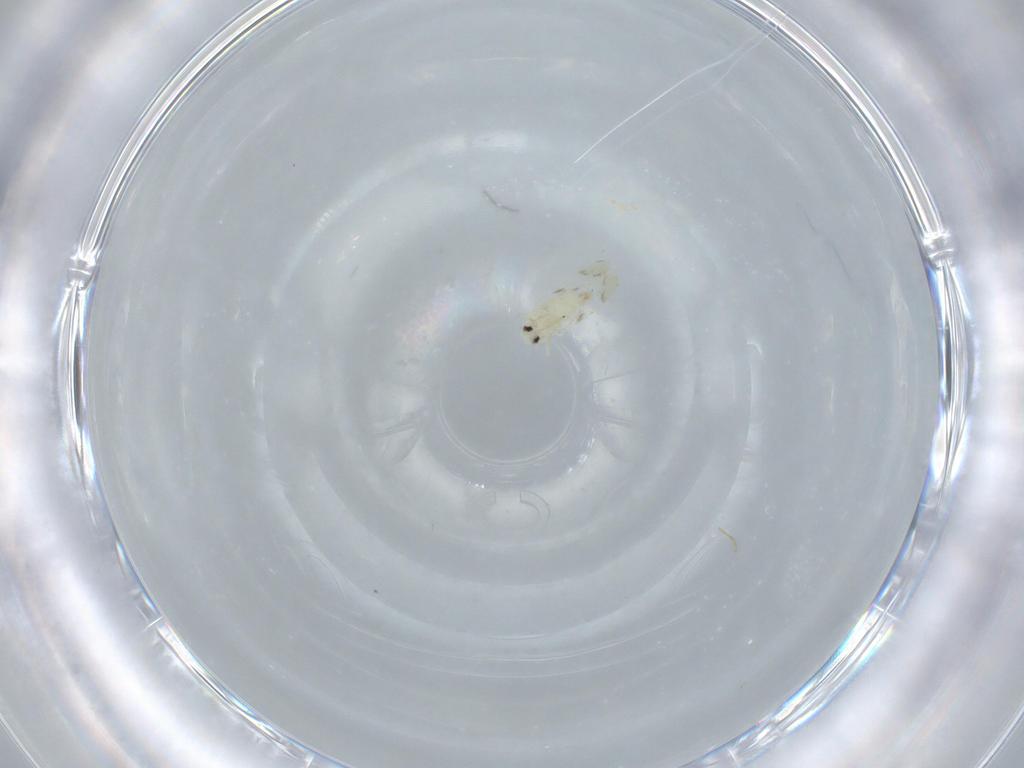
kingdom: Animalia
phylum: Arthropoda
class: Insecta
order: Hemiptera
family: Aleyrodidae
